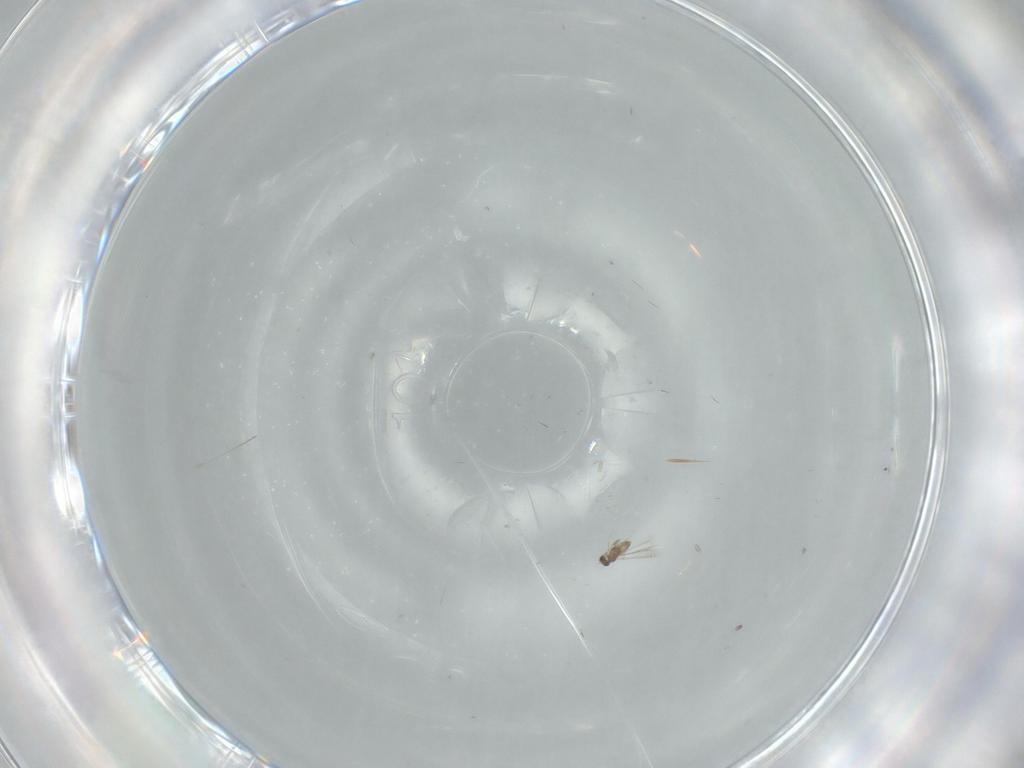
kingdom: Animalia
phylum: Arthropoda
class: Insecta
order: Hymenoptera
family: Mymaridae
